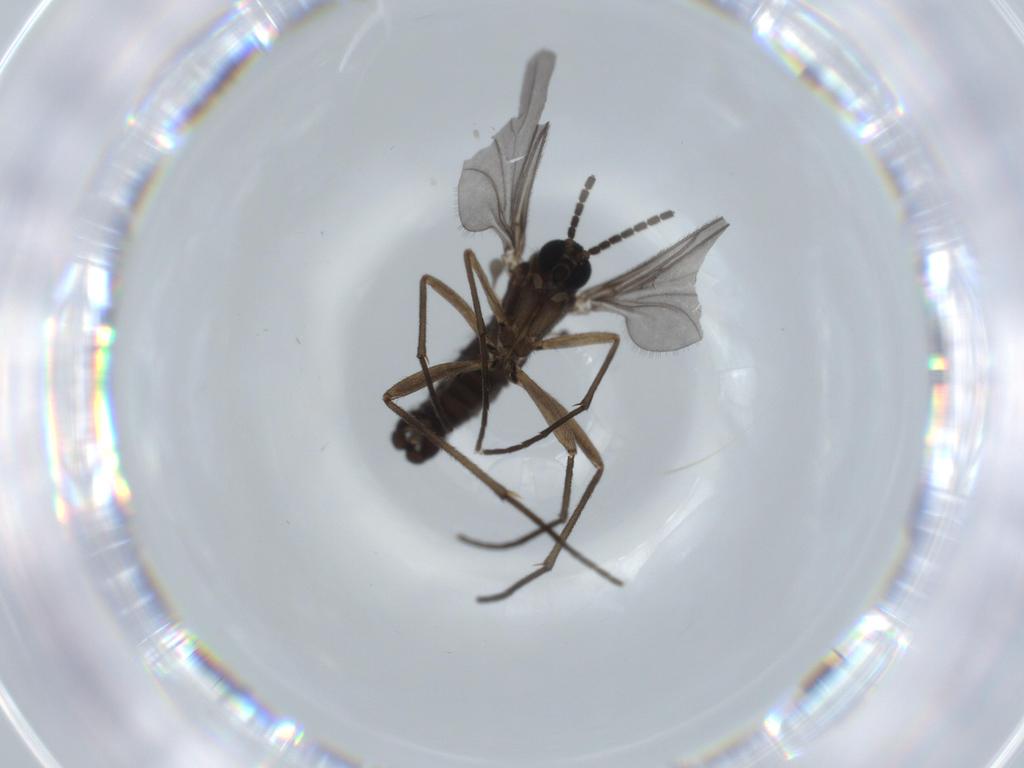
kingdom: Animalia
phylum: Arthropoda
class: Insecta
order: Diptera
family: Sciaridae
